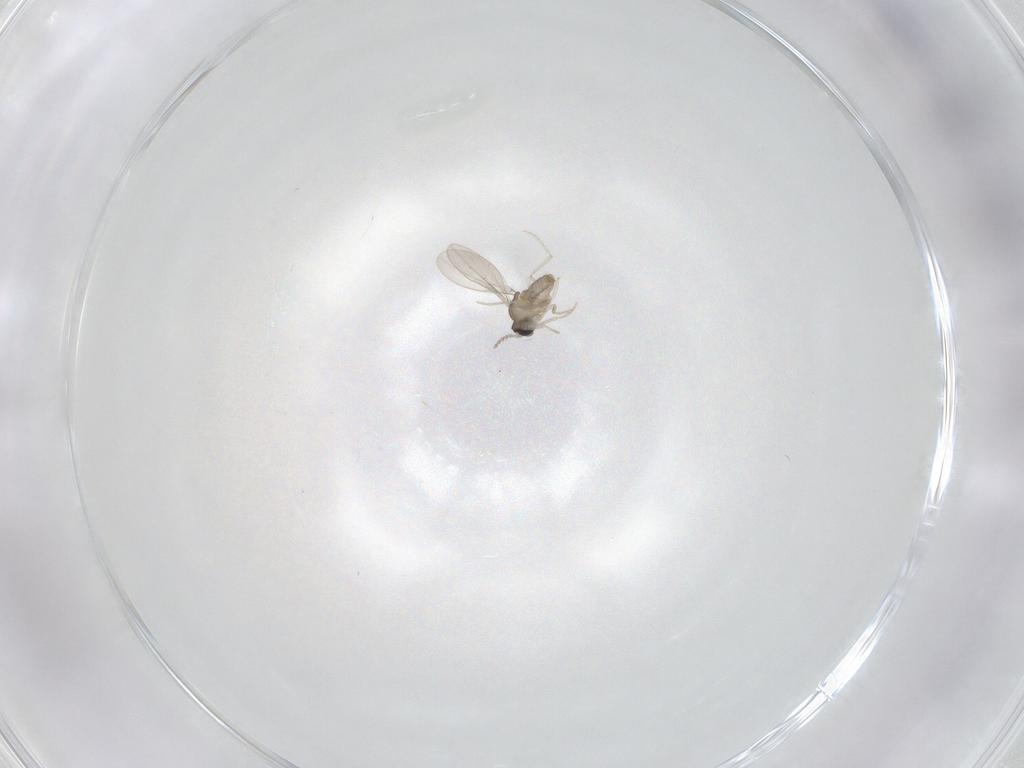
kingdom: Animalia
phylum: Arthropoda
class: Insecta
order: Diptera
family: Cecidomyiidae
